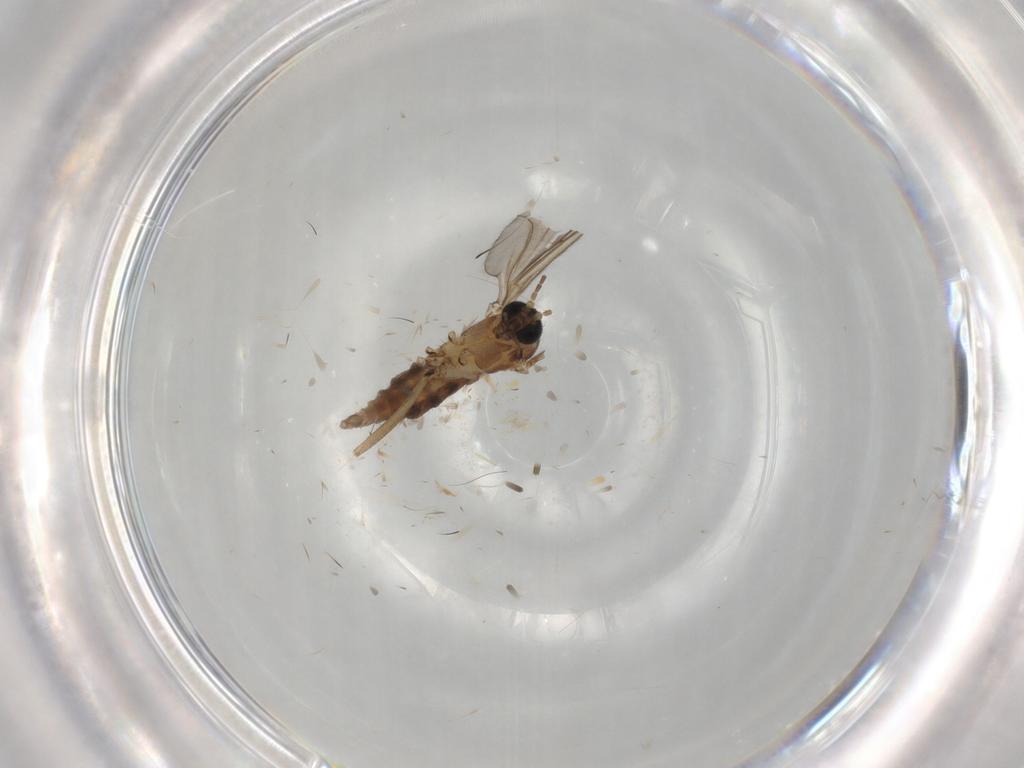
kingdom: Animalia
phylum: Arthropoda
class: Insecta
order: Diptera
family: Sciaridae
